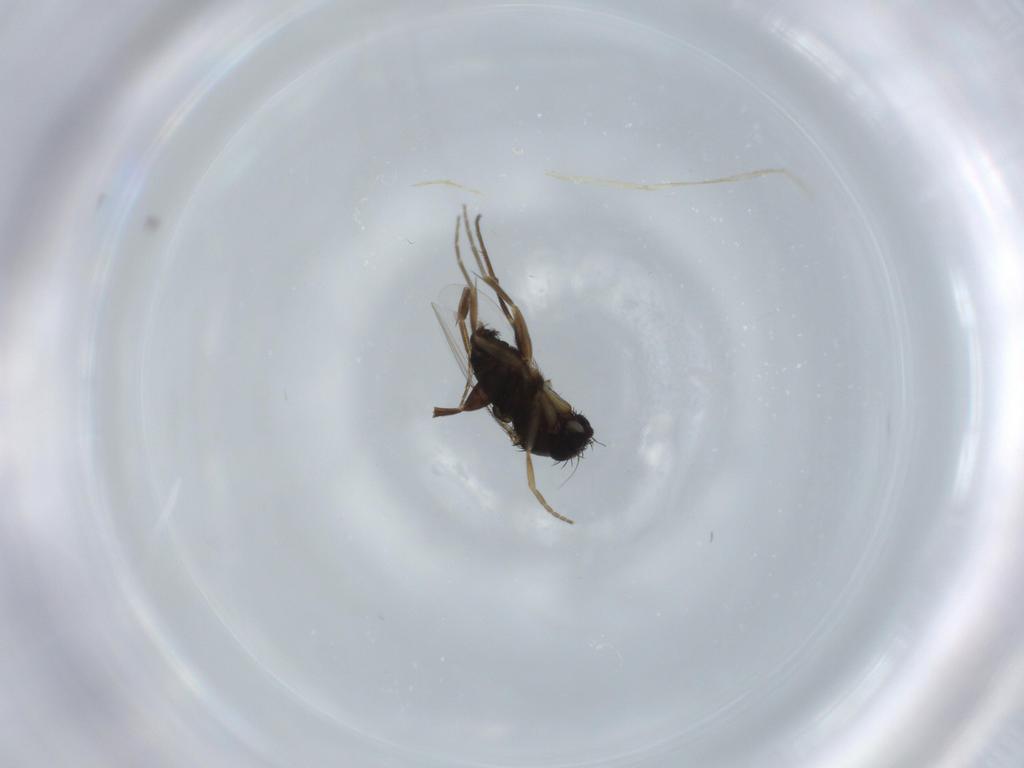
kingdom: Animalia
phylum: Arthropoda
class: Insecta
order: Diptera
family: Phoridae
